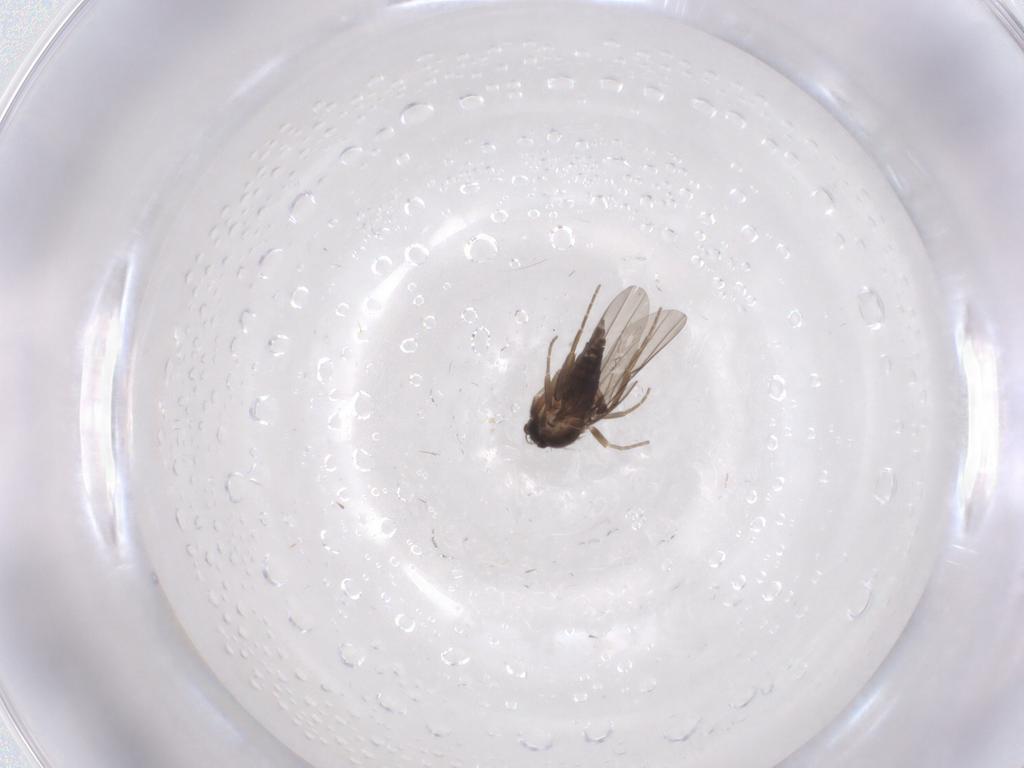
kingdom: Animalia
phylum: Arthropoda
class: Insecta
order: Diptera
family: Phoridae
